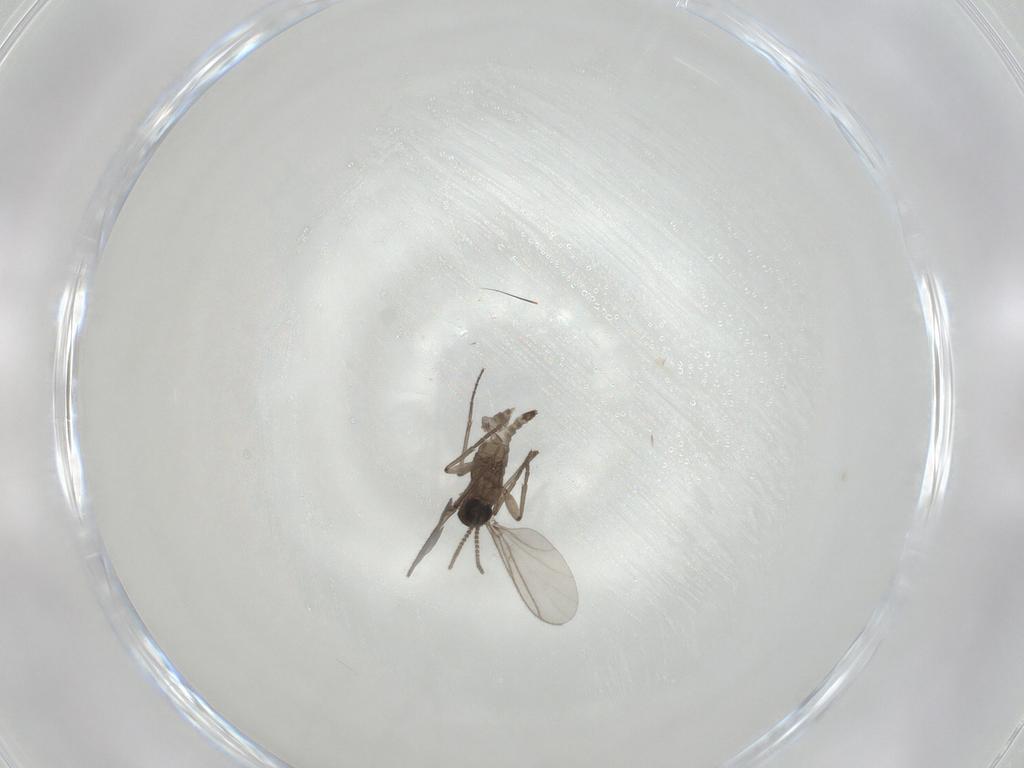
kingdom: Animalia
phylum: Arthropoda
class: Insecta
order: Diptera
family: Sciaridae
